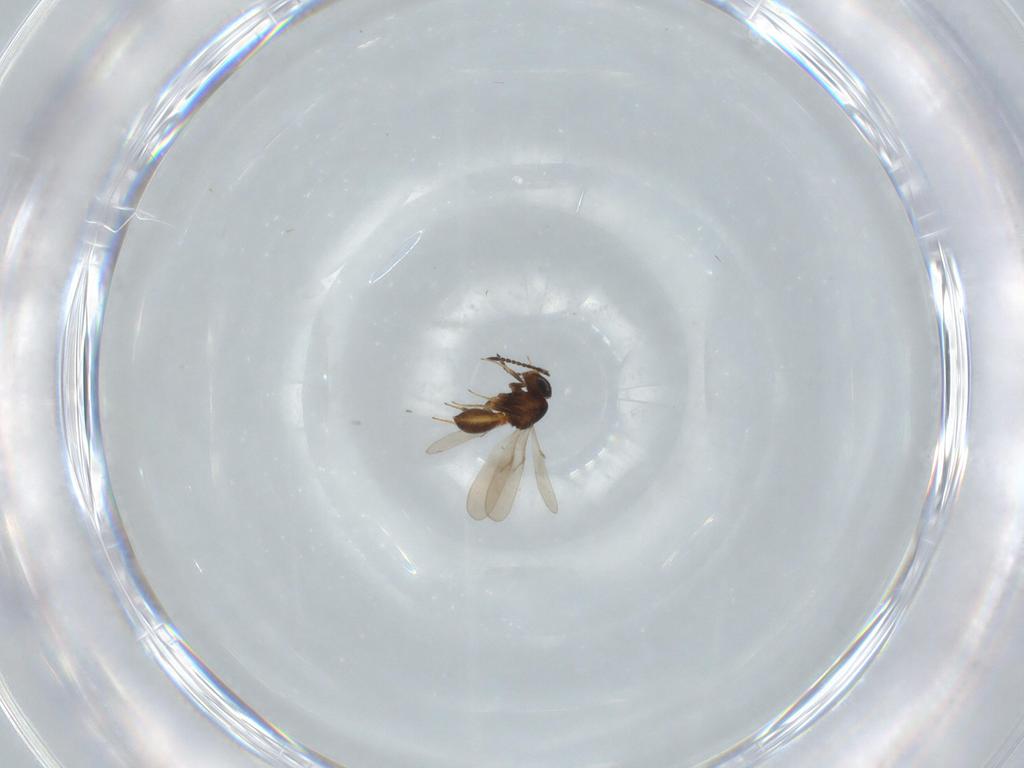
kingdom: Animalia
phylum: Arthropoda
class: Insecta
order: Hymenoptera
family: Scelionidae
